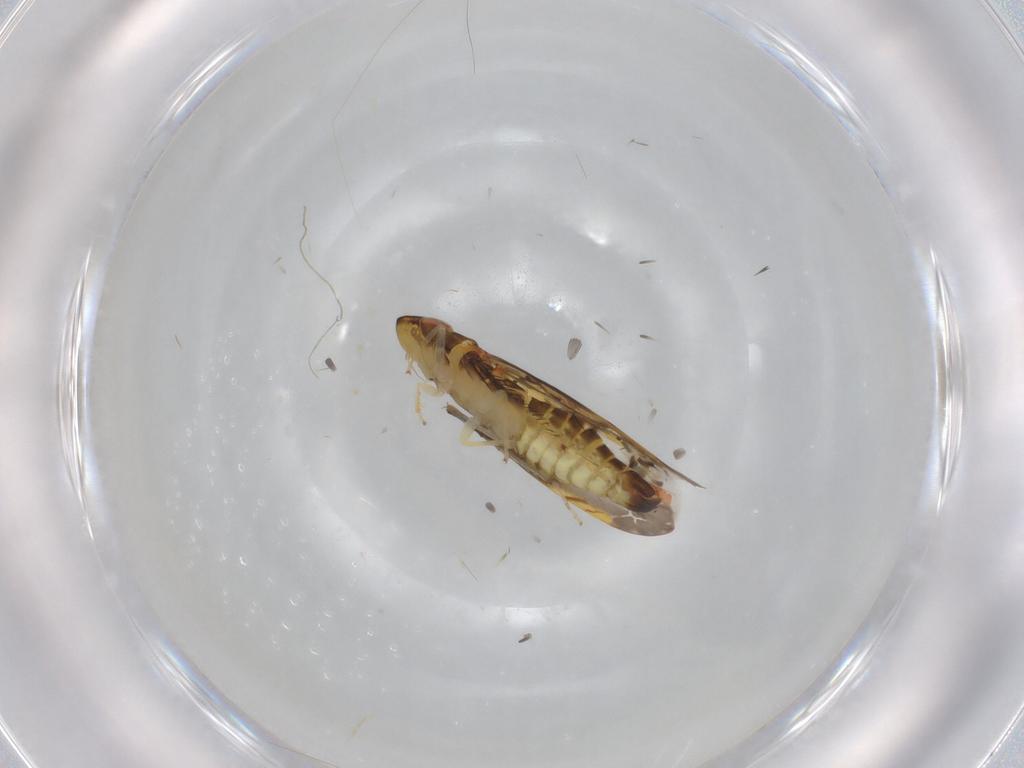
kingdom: Animalia
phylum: Arthropoda
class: Insecta
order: Hemiptera
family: Cicadellidae
